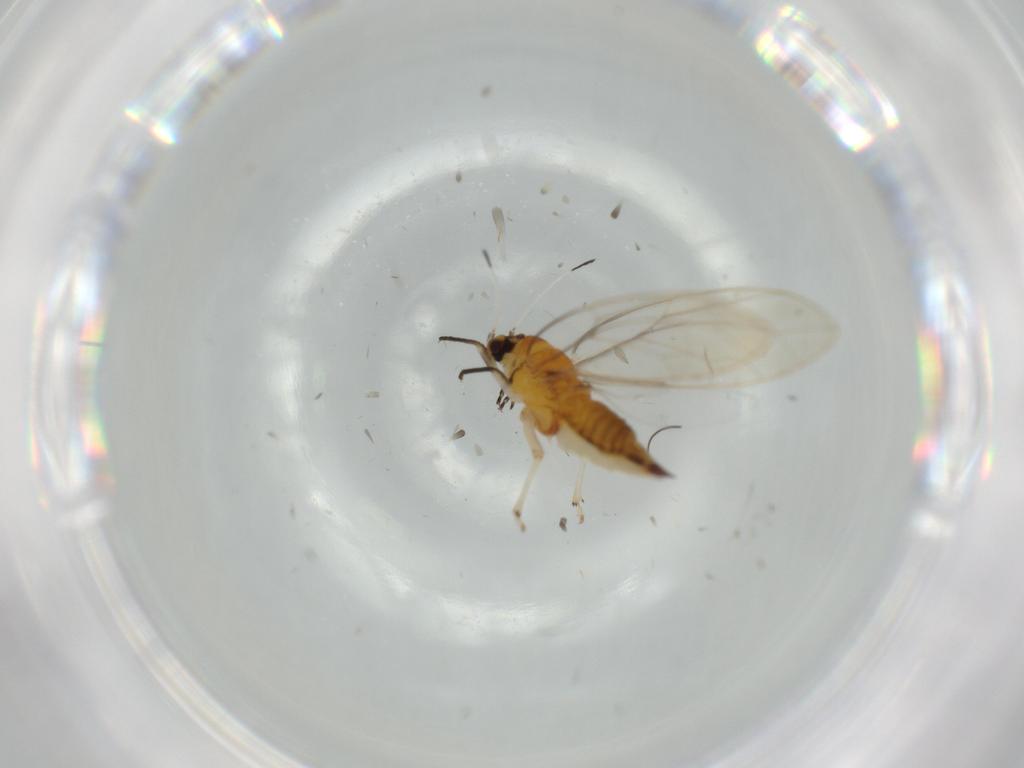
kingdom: Animalia
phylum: Arthropoda
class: Insecta
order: Hemiptera
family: Triozidae
